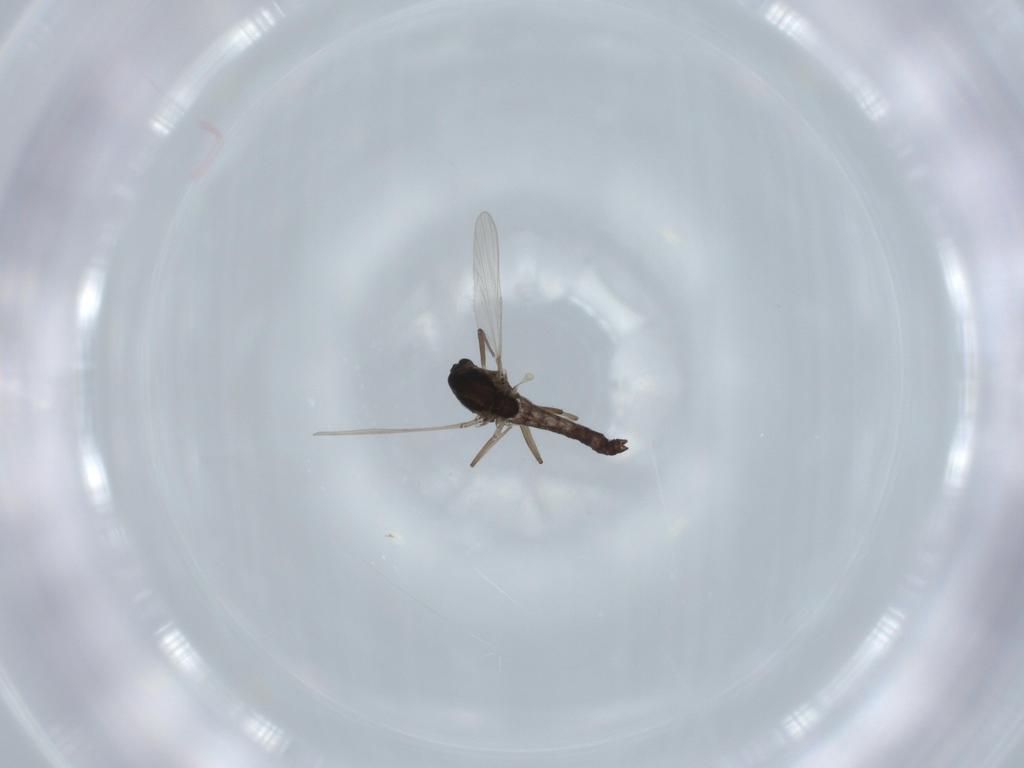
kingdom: Animalia
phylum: Arthropoda
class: Insecta
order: Diptera
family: Chironomidae
